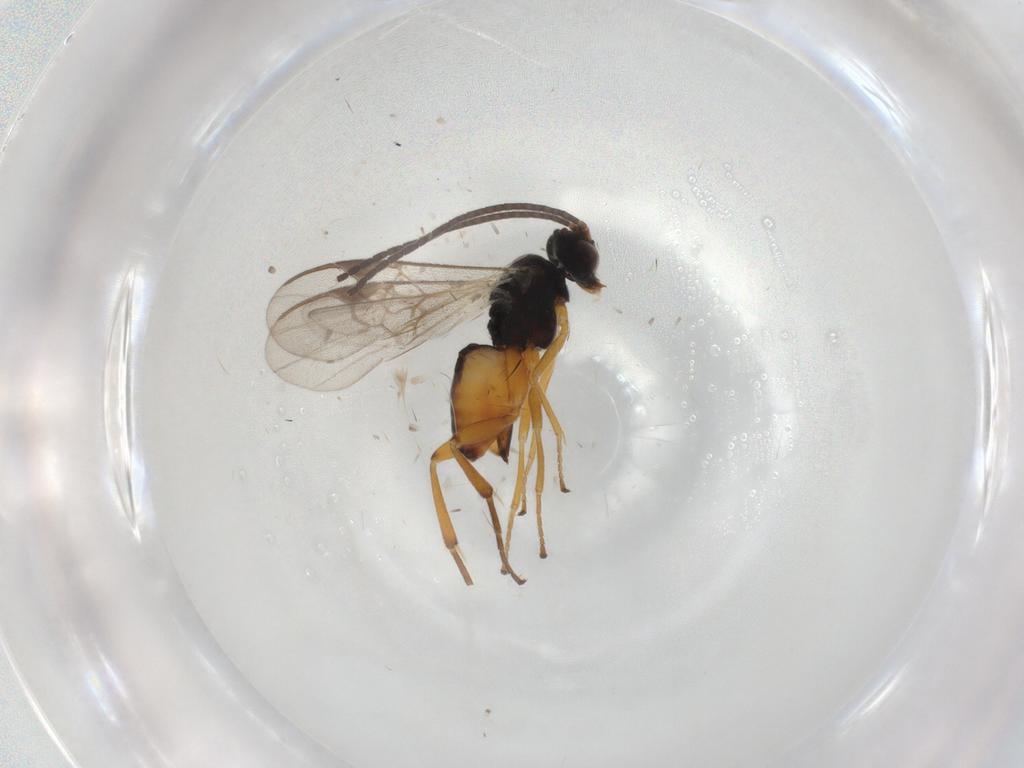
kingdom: Animalia
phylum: Arthropoda
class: Insecta
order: Hymenoptera
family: Braconidae
